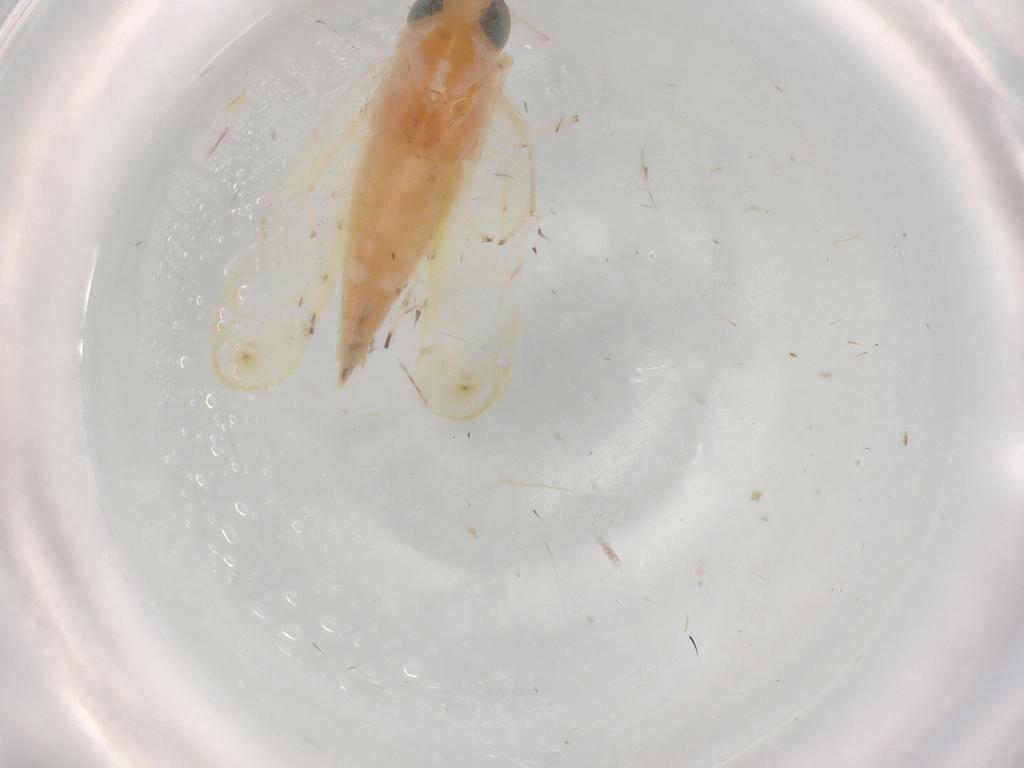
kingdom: Animalia
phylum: Arthropoda
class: Insecta
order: Hemiptera
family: Cicadellidae
